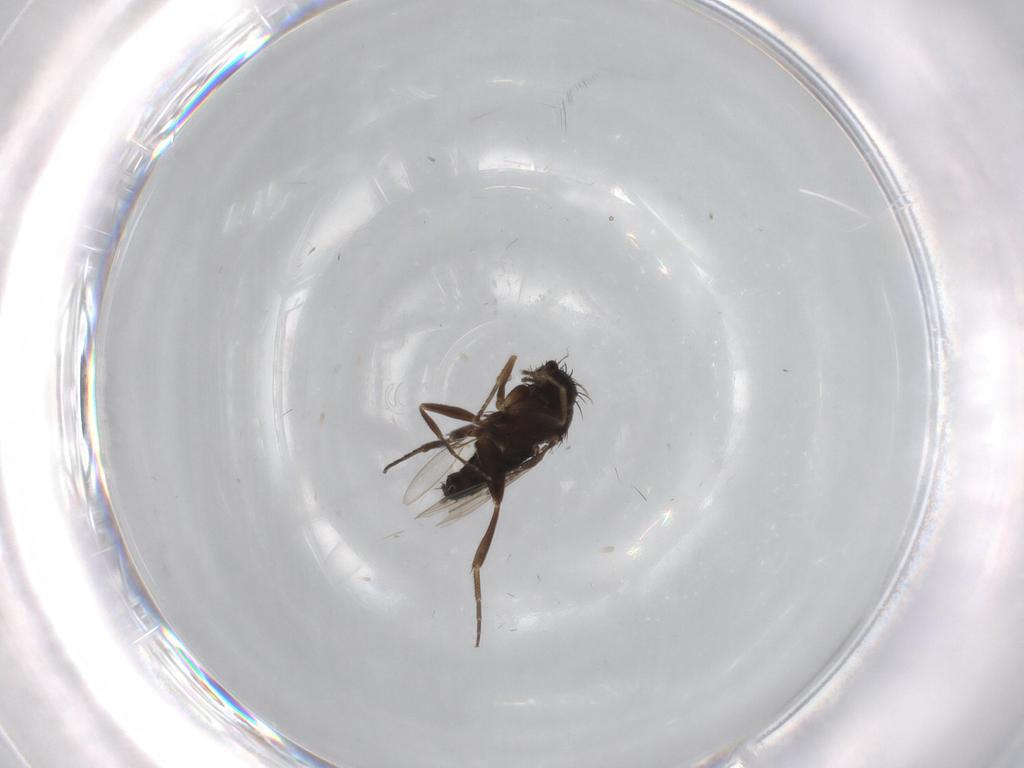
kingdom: Animalia
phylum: Arthropoda
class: Insecta
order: Diptera
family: Phoridae
